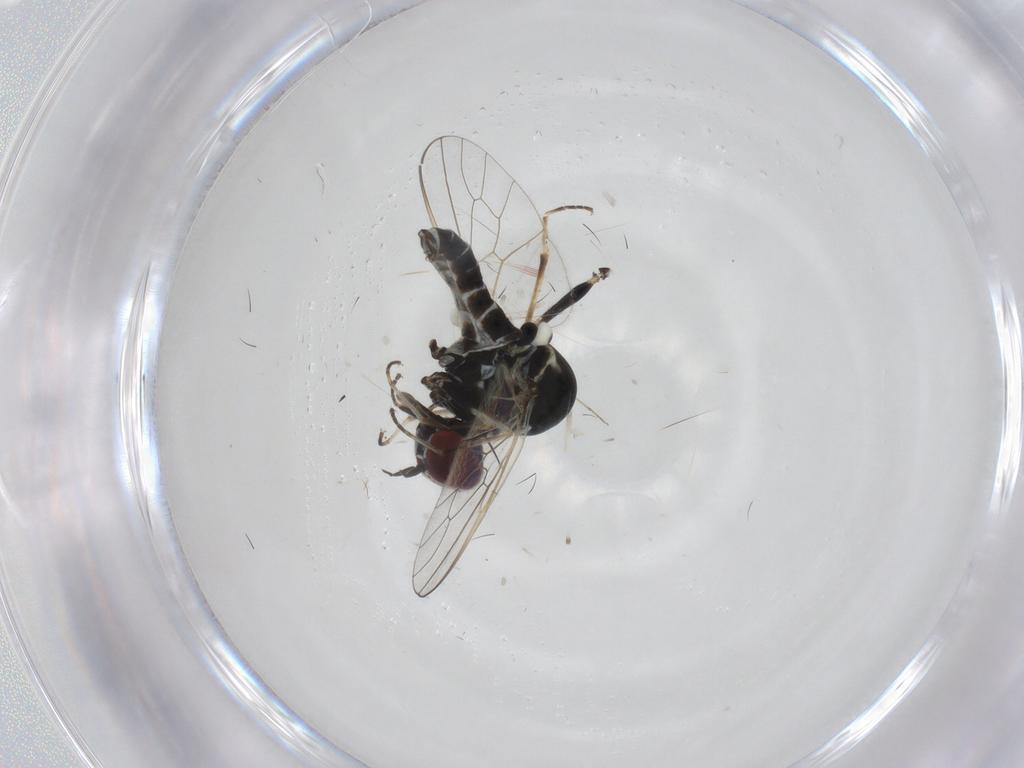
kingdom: Animalia
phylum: Arthropoda
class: Insecta
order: Diptera
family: Bombyliidae
